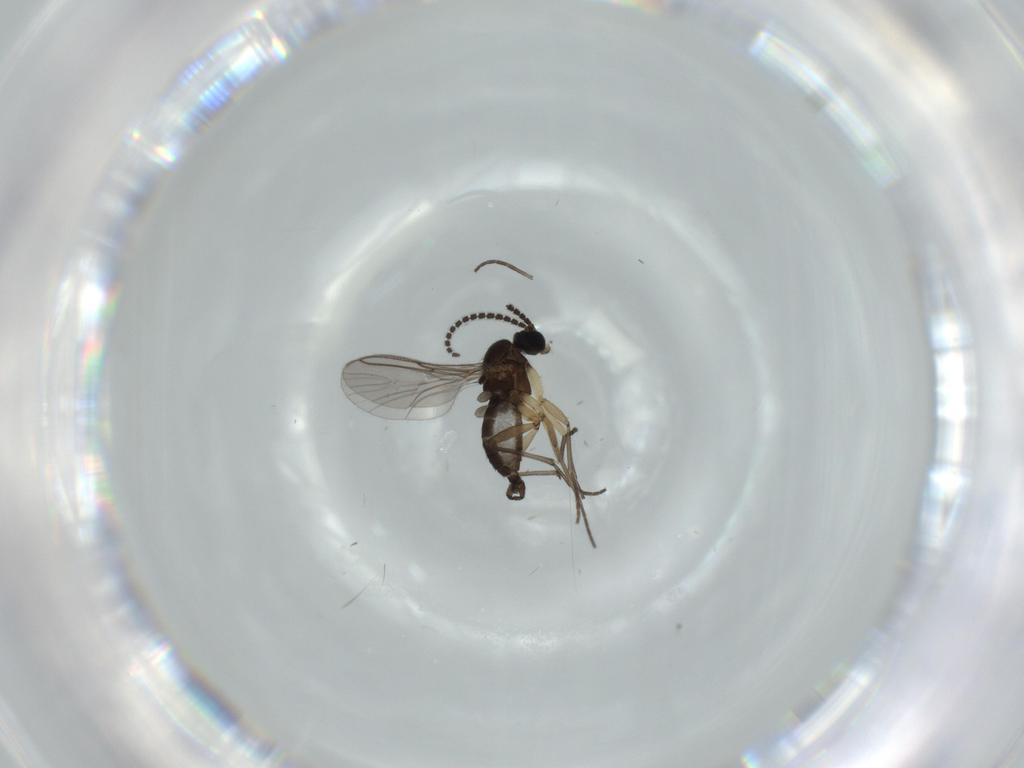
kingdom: Animalia
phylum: Arthropoda
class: Insecta
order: Diptera
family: Sciaridae
